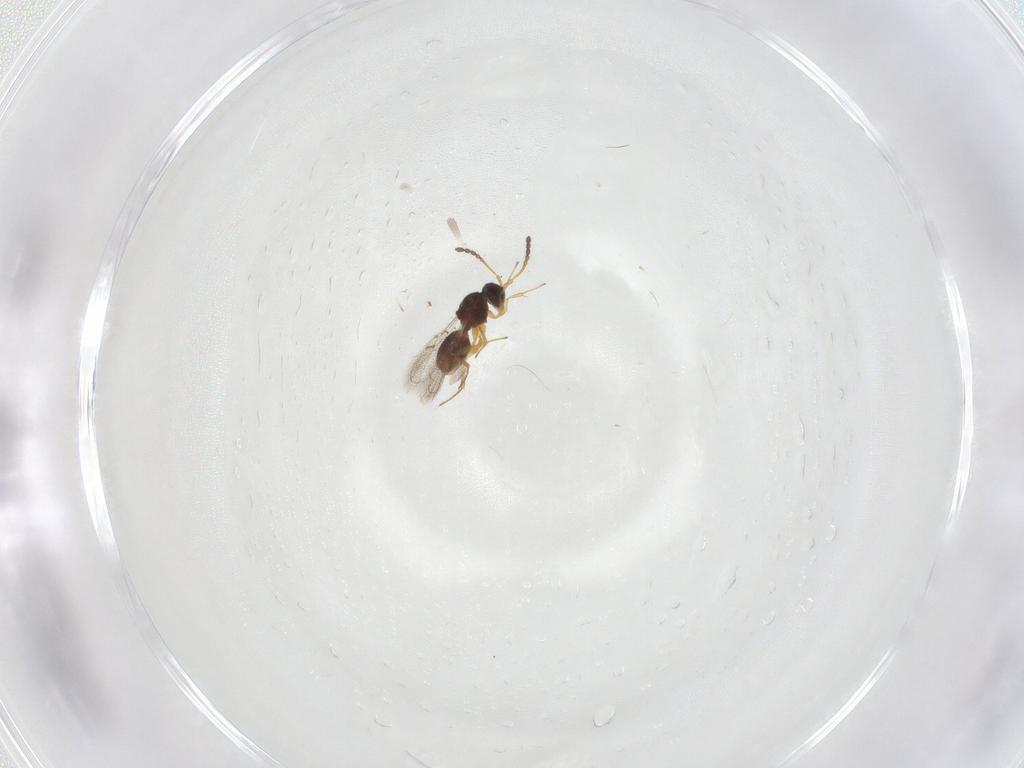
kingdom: Animalia
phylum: Arthropoda
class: Insecta
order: Hymenoptera
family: Figitidae
